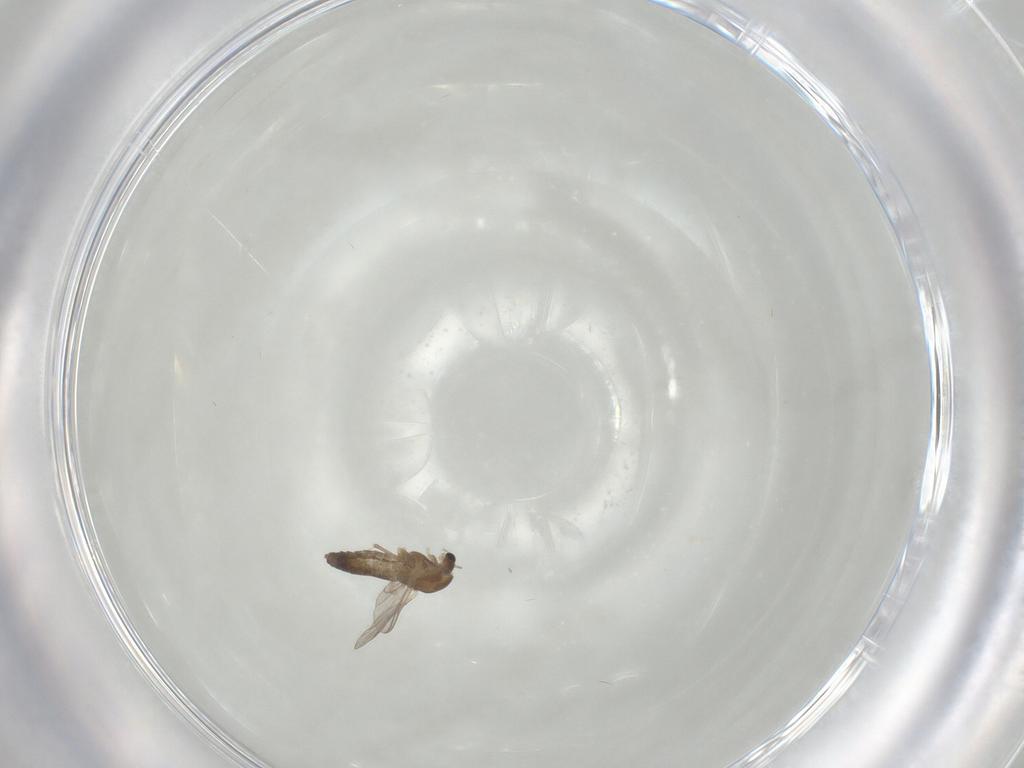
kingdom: Animalia
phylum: Arthropoda
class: Insecta
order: Diptera
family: Chironomidae
